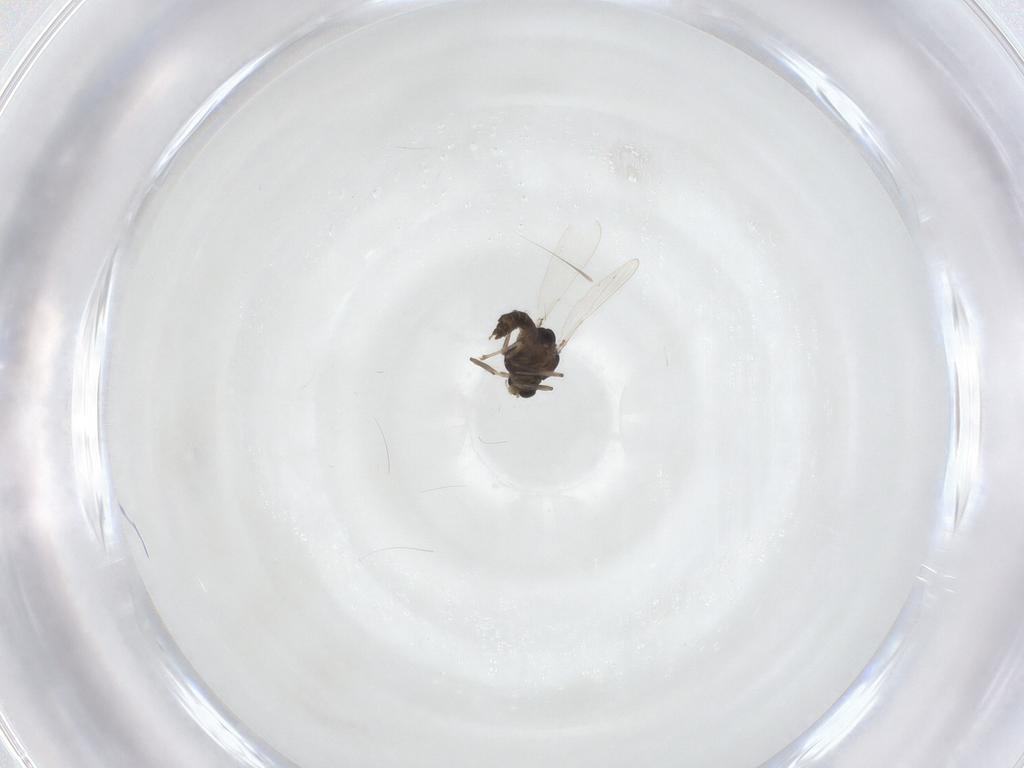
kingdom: Animalia
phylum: Arthropoda
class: Insecta
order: Diptera
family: Chironomidae
